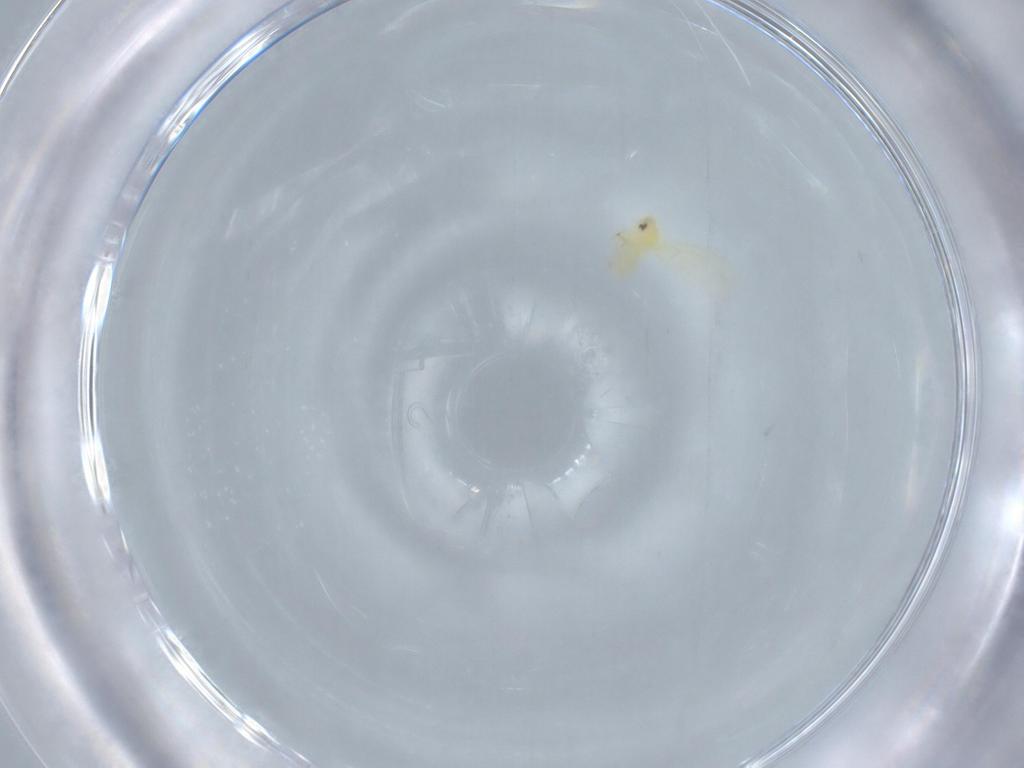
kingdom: Animalia
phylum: Arthropoda
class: Insecta
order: Hemiptera
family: Aleyrodidae
